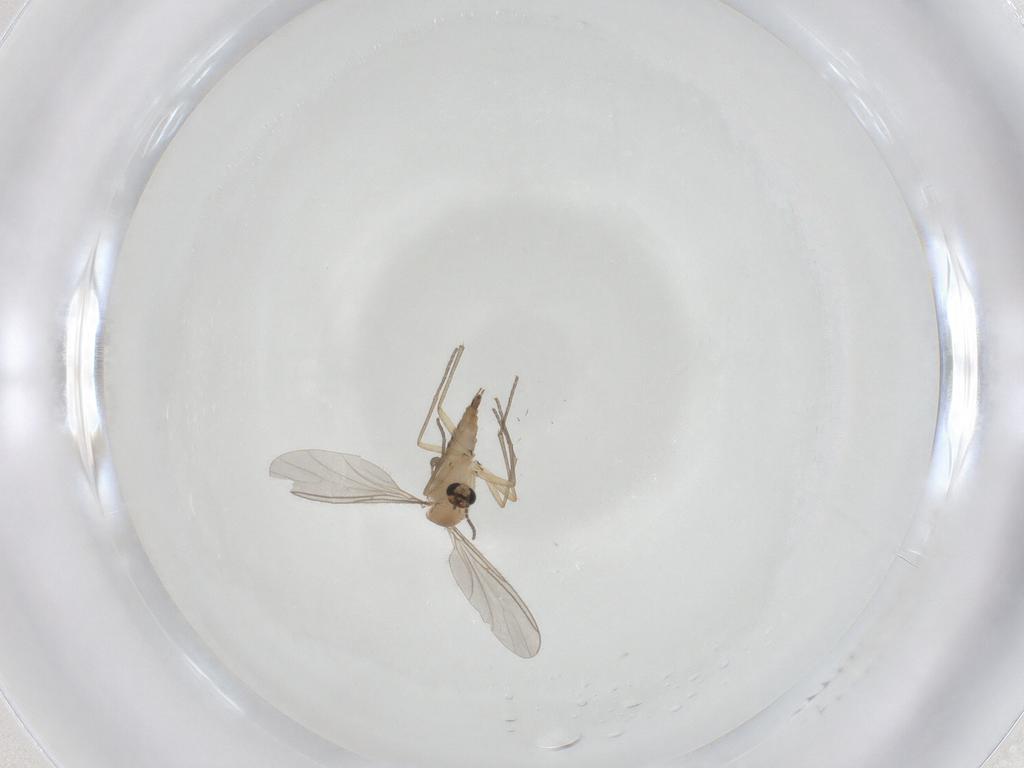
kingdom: Animalia
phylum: Arthropoda
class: Insecta
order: Diptera
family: Sciaridae
